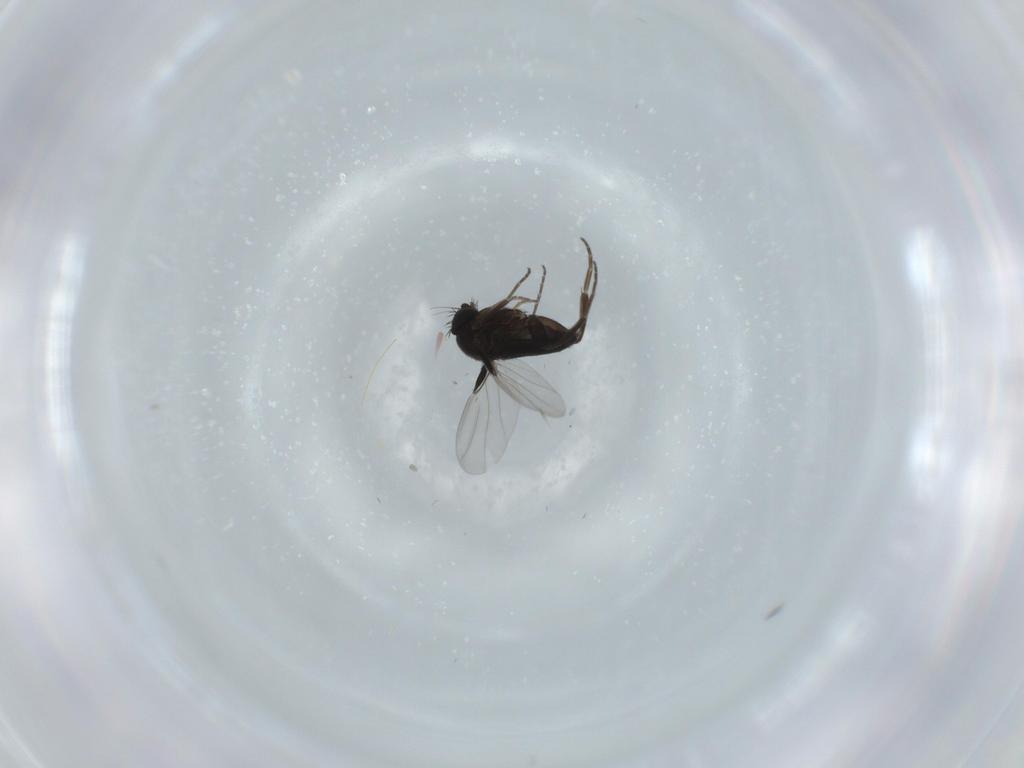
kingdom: Animalia
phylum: Arthropoda
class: Insecta
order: Diptera
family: Phoridae
